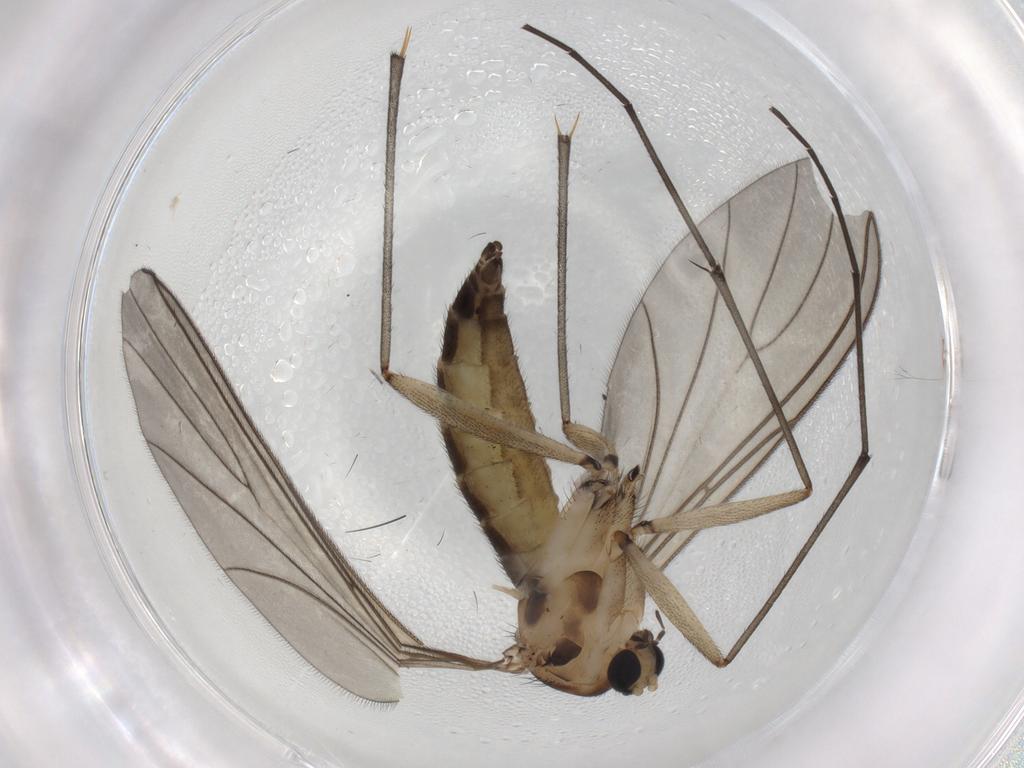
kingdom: Animalia
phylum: Arthropoda
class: Insecta
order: Diptera
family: Sciaridae
